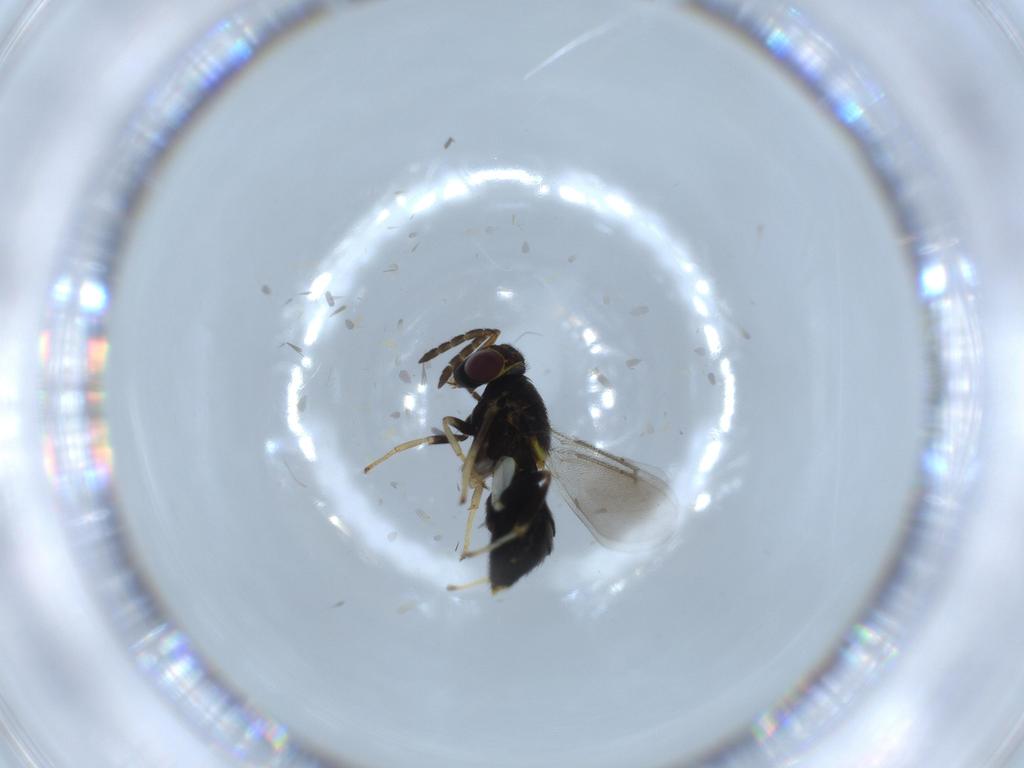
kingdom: Animalia
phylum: Arthropoda
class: Insecta
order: Hymenoptera
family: Aphelinidae
